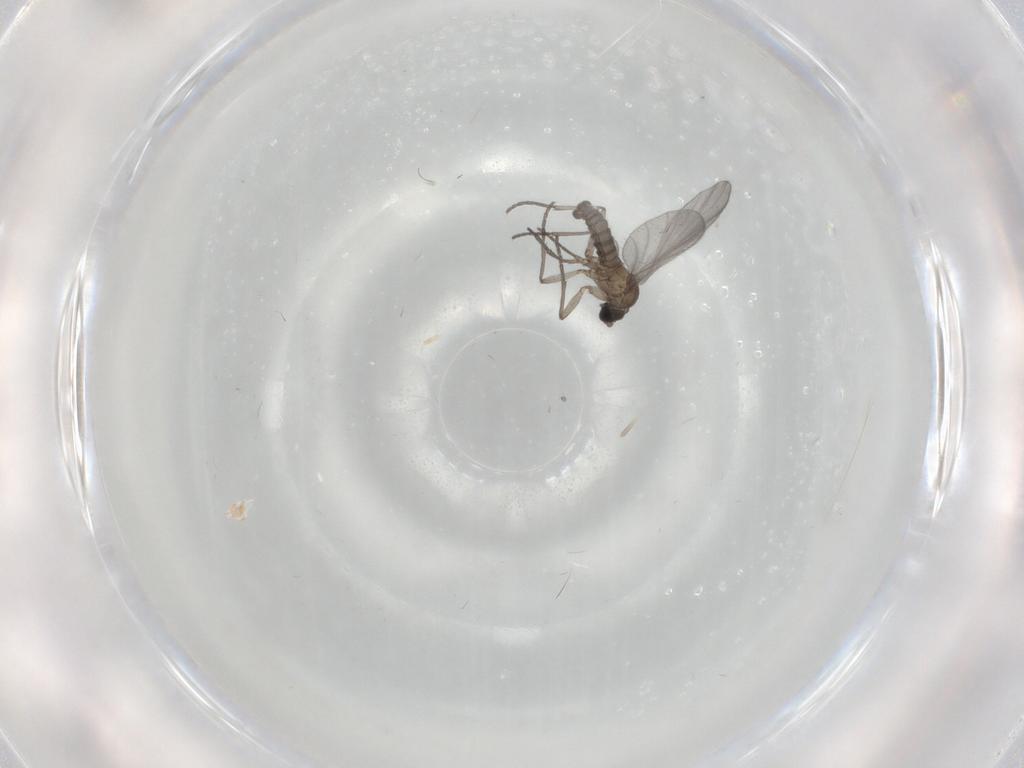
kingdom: Animalia
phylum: Arthropoda
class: Insecta
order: Diptera
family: Sciaridae
